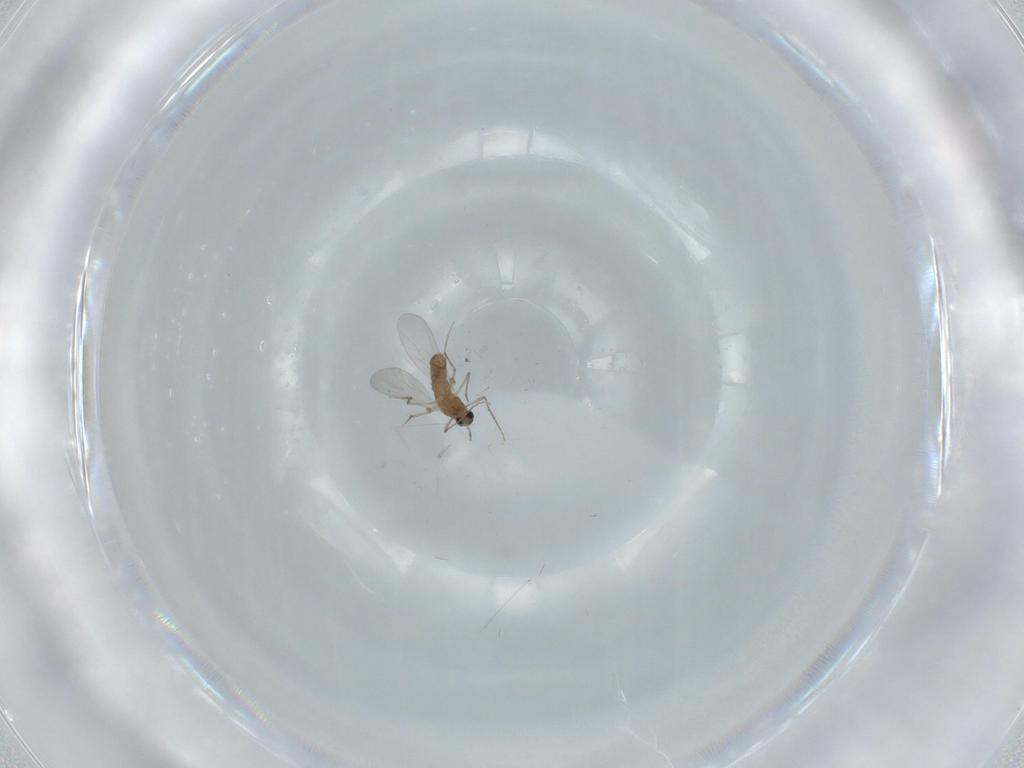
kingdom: Animalia
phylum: Arthropoda
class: Insecta
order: Diptera
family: Chironomidae
